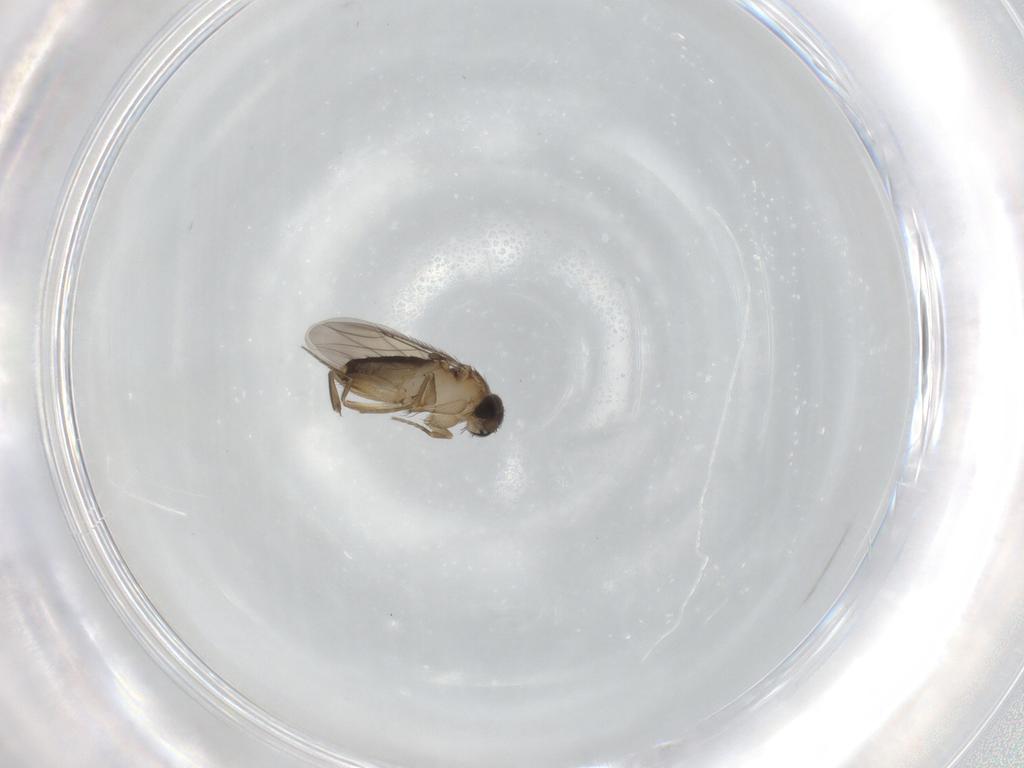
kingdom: Animalia
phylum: Arthropoda
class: Insecta
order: Diptera
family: Phoridae
